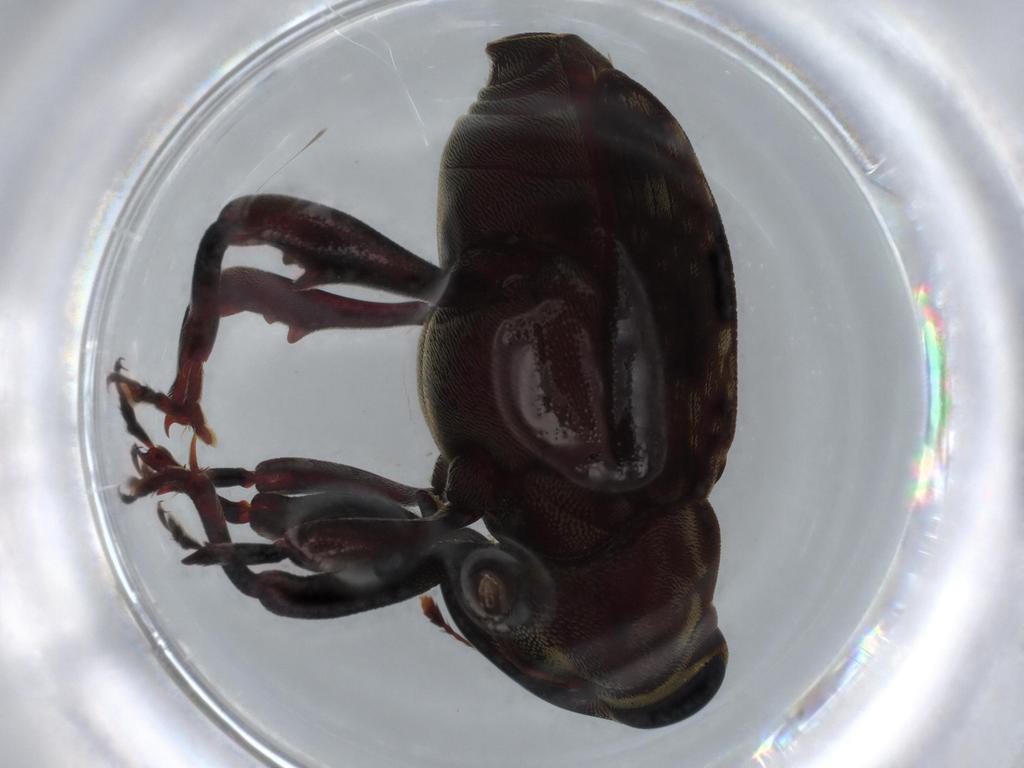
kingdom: Animalia
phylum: Arthropoda
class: Insecta
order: Coleoptera
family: Curculionidae
